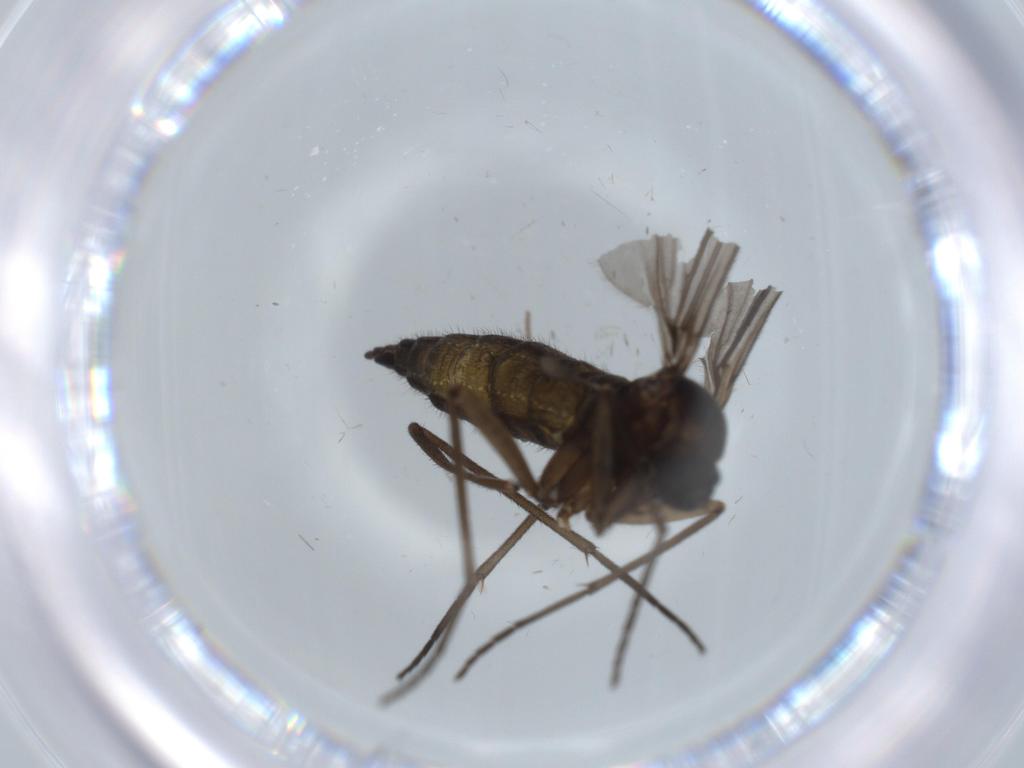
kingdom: Animalia
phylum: Arthropoda
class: Insecta
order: Diptera
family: Sciaridae
